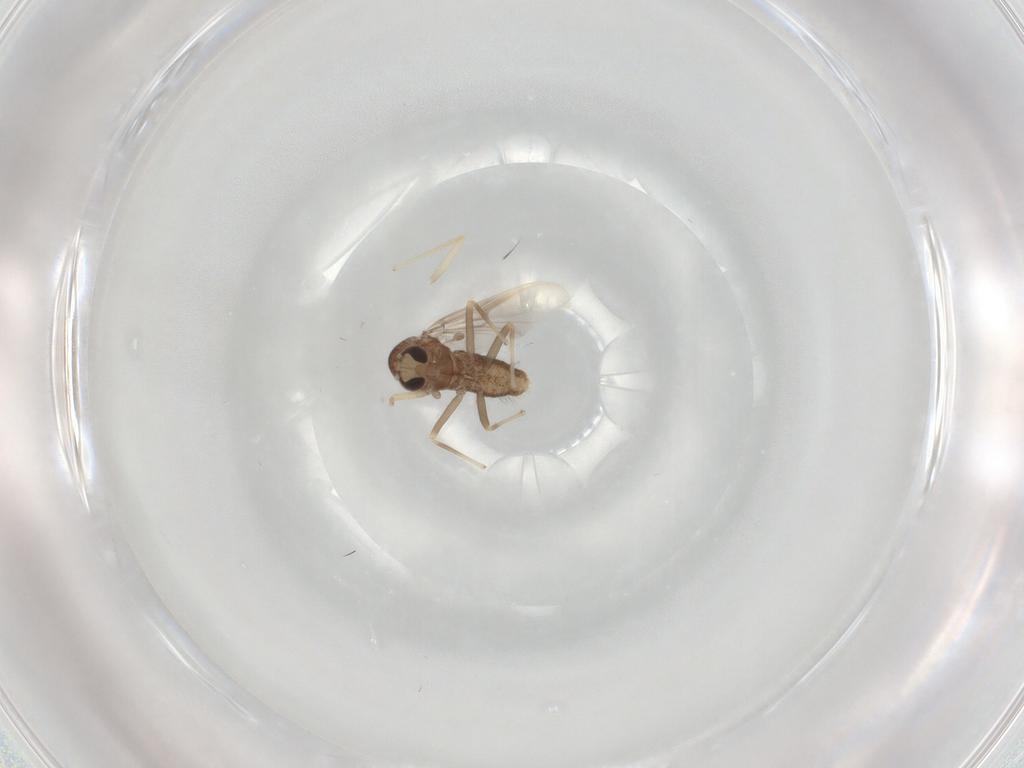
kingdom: Animalia
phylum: Arthropoda
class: Insecta
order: Diptera
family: Chironomidae
